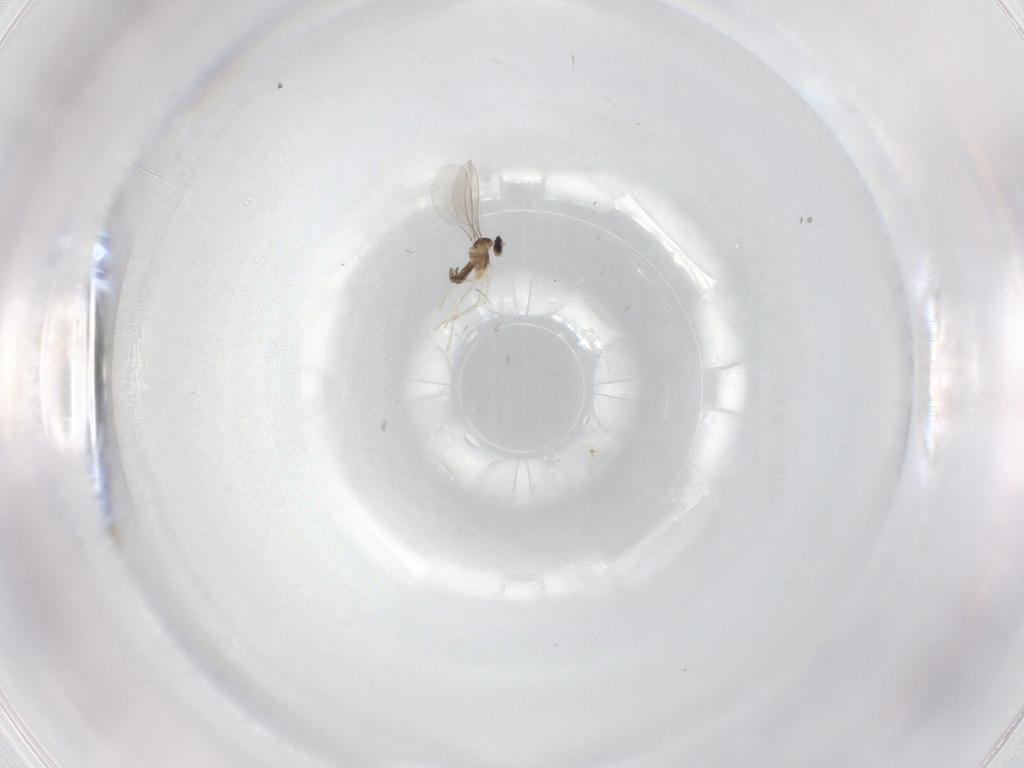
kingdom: Animalia
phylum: Arthropoda
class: Insecta
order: Diptera
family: Cecidomyiidae
